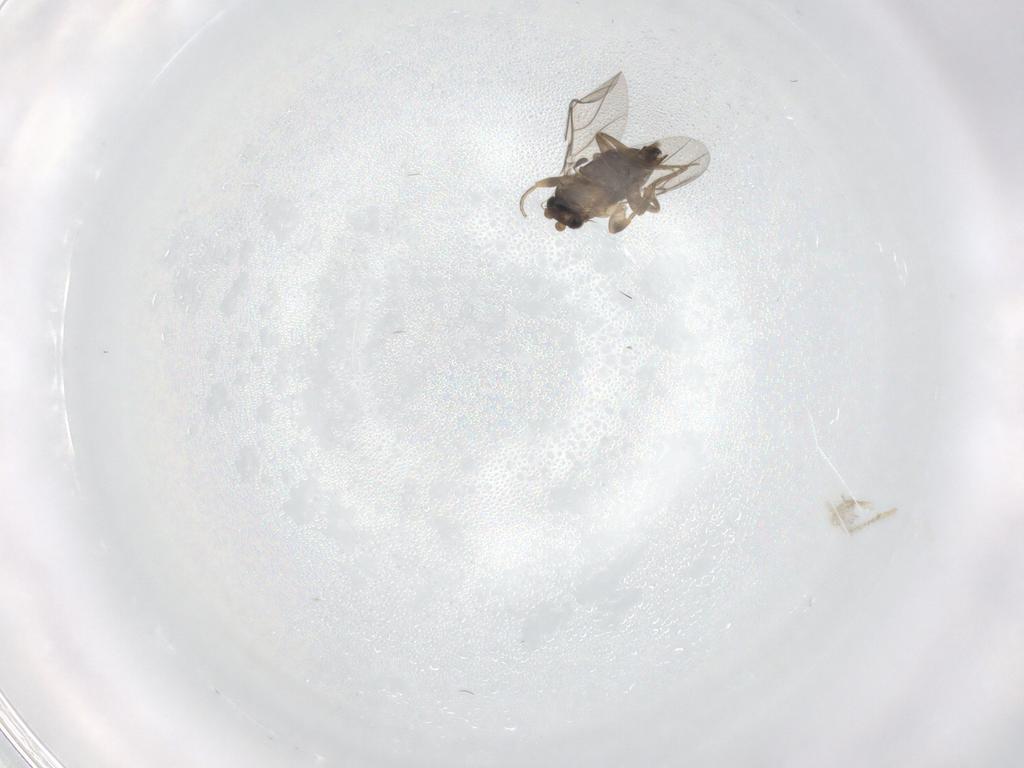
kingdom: Animalia
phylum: Arthropoda
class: Insecta
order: Diptera
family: Phoridae
